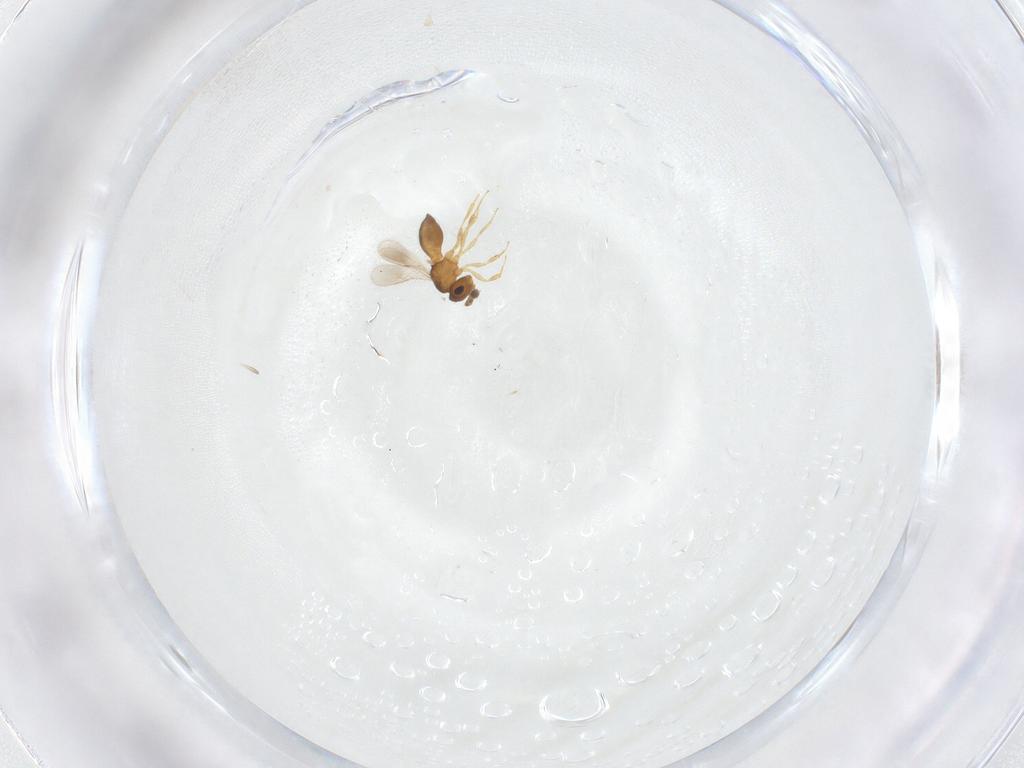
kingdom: Animalia
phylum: Arthropoda
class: Insecta
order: Hymenoptera
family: Scelionidae
